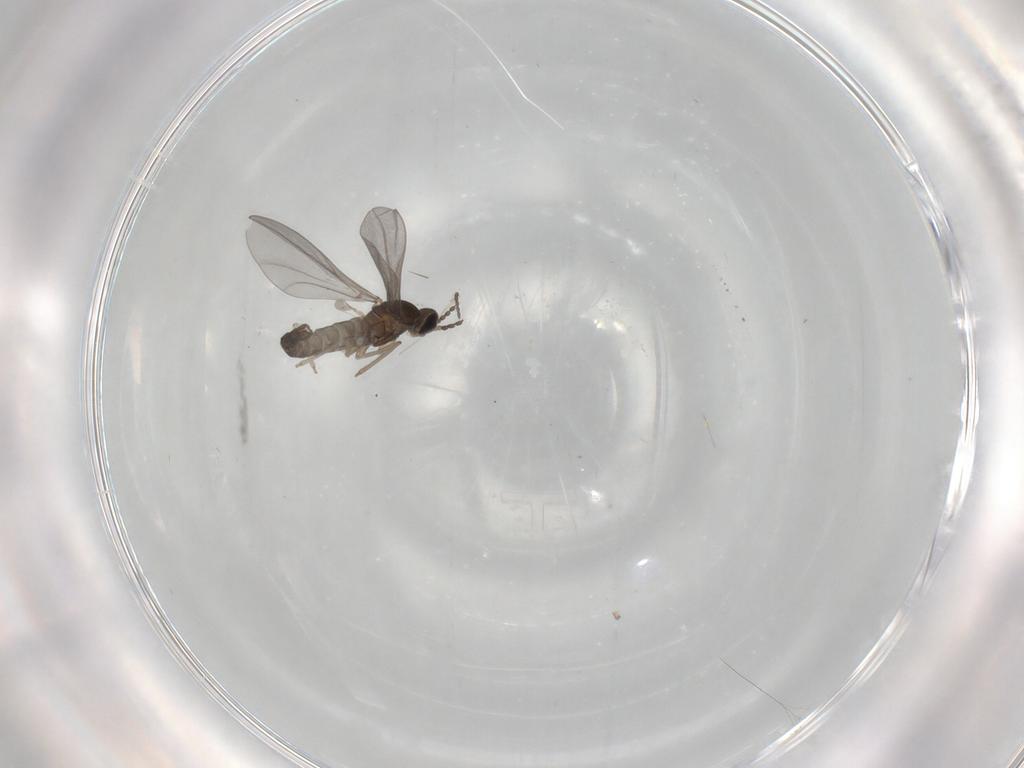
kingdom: Animalia
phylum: Arthropoda
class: Insecta
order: Diptera
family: Cecidomyiidae
